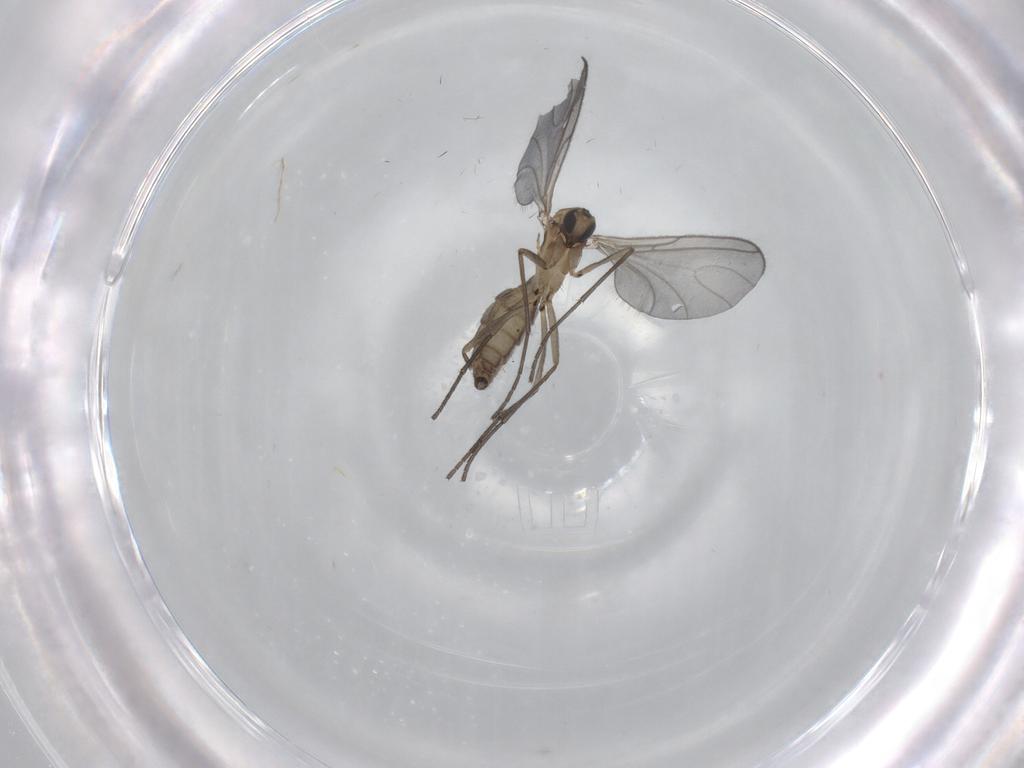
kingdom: Animalia
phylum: Arthropoda
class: Insecta
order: Diptera
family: Sciaridae
